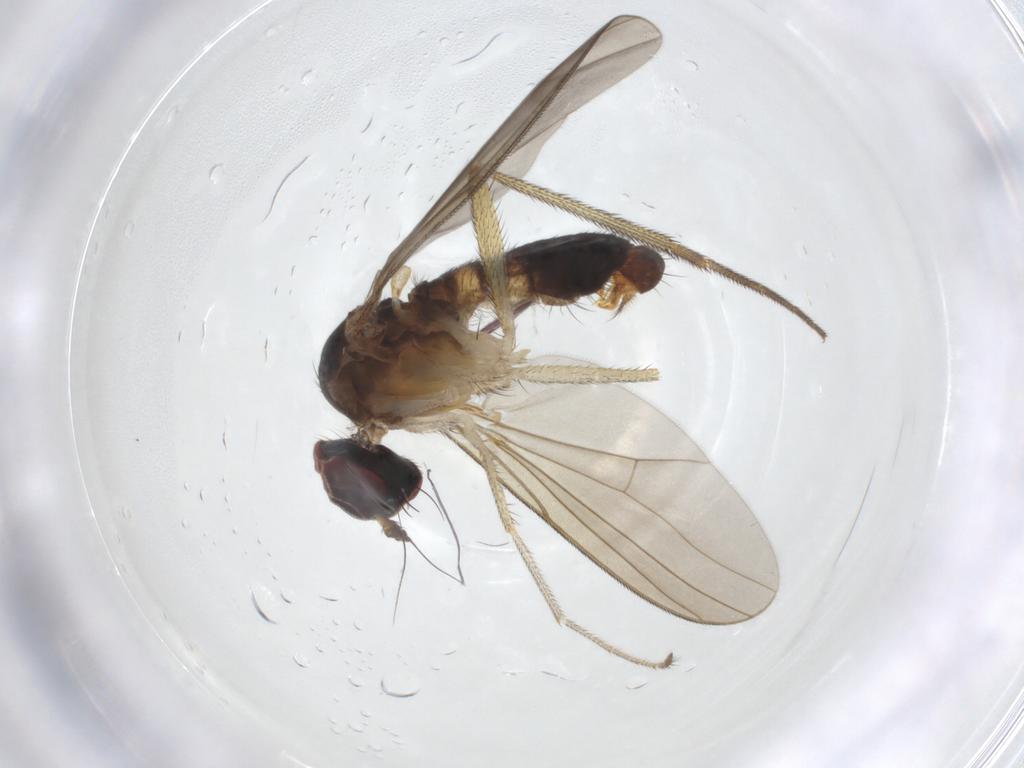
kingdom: Animalia
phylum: Arthropoda
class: Insecta
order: Diptera
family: Dolichopodidae
